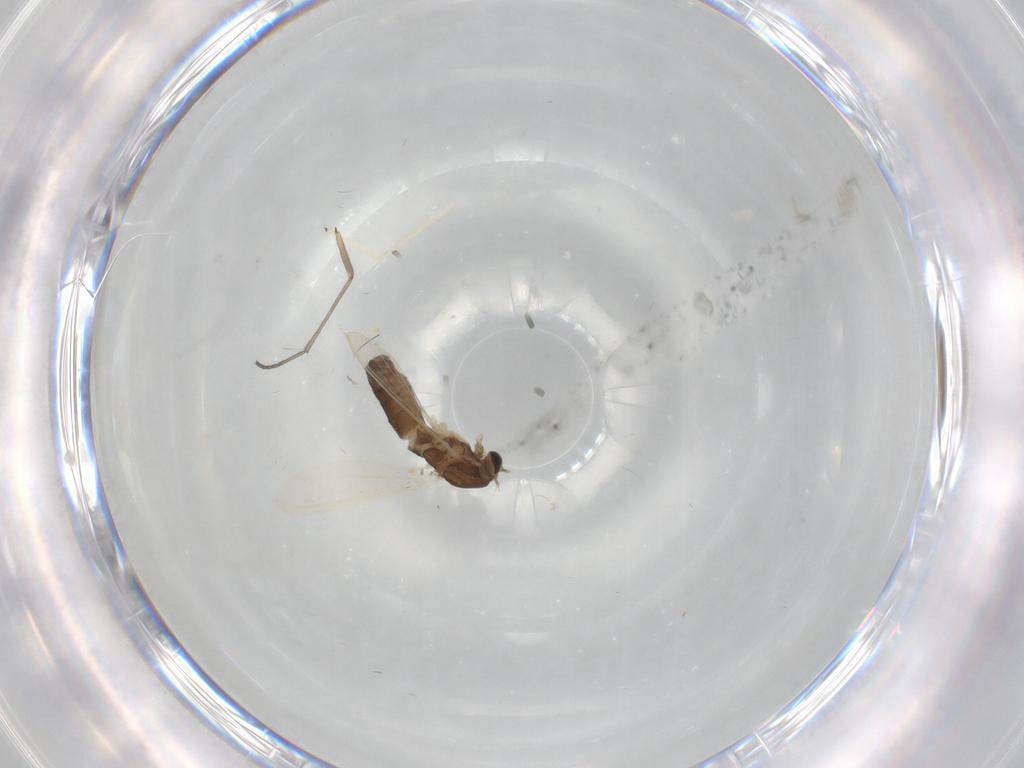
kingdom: Animalia
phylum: Arthropoda
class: Insecta
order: Diptera
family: Chironomidae
